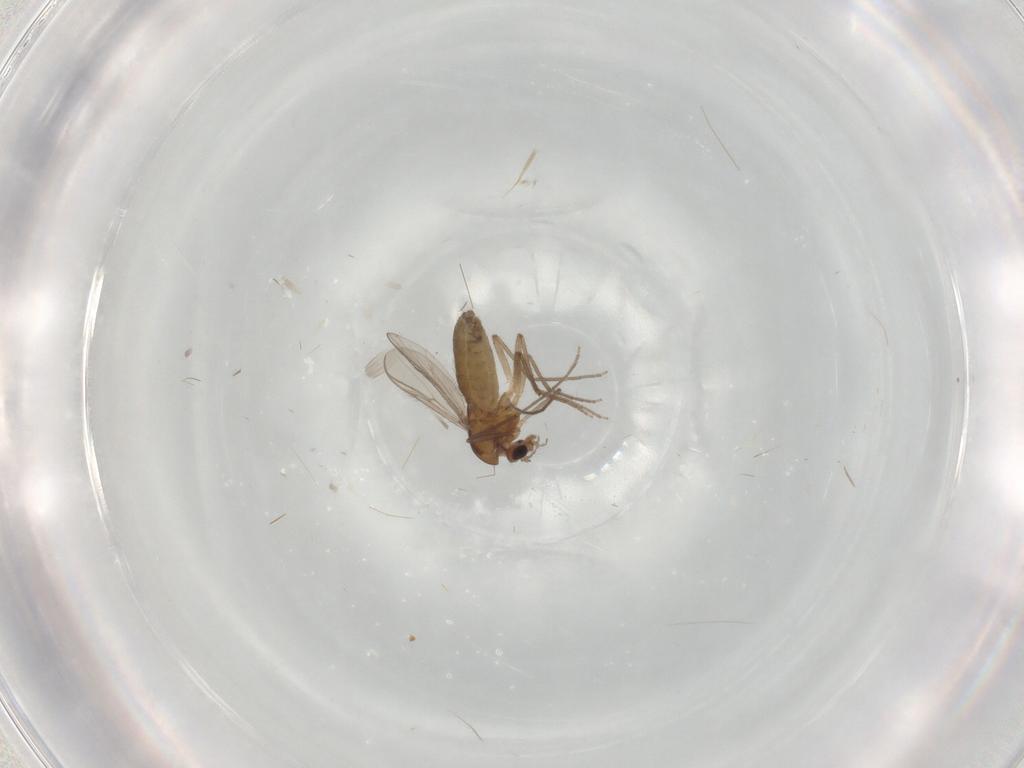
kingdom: Animalia
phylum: Arthropoda
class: Insecta
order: Diptera
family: Chironomidae
